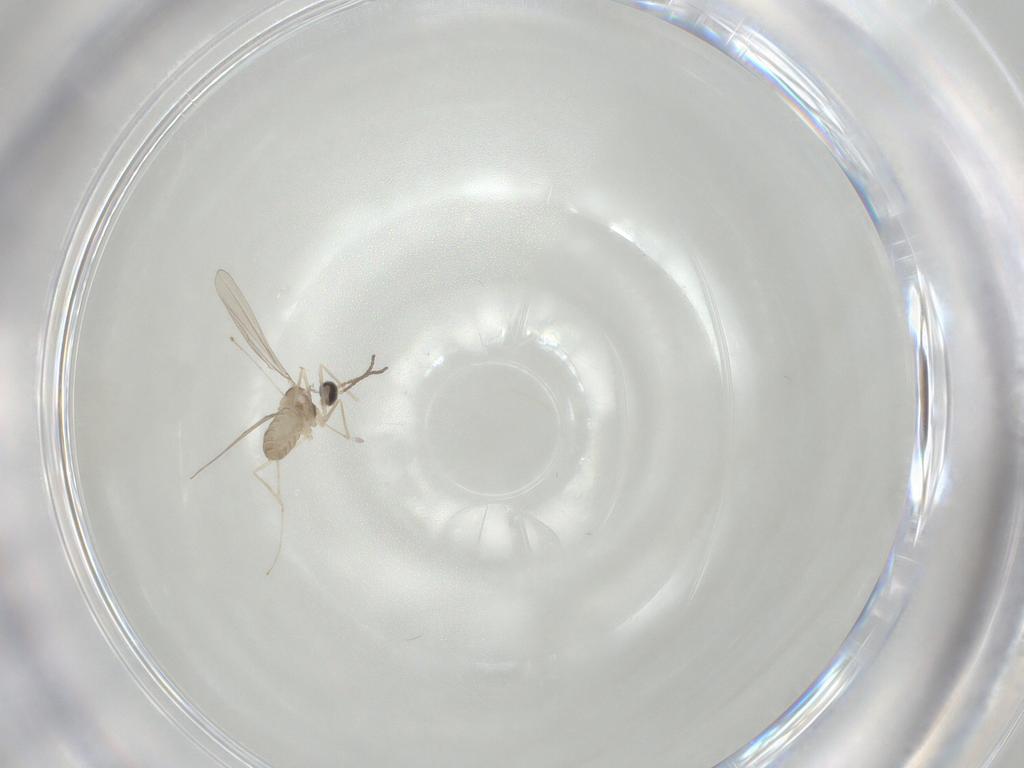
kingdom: Animalia
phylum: Arthropoda
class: Insecta
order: Diptera
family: Cecidomyiidae
